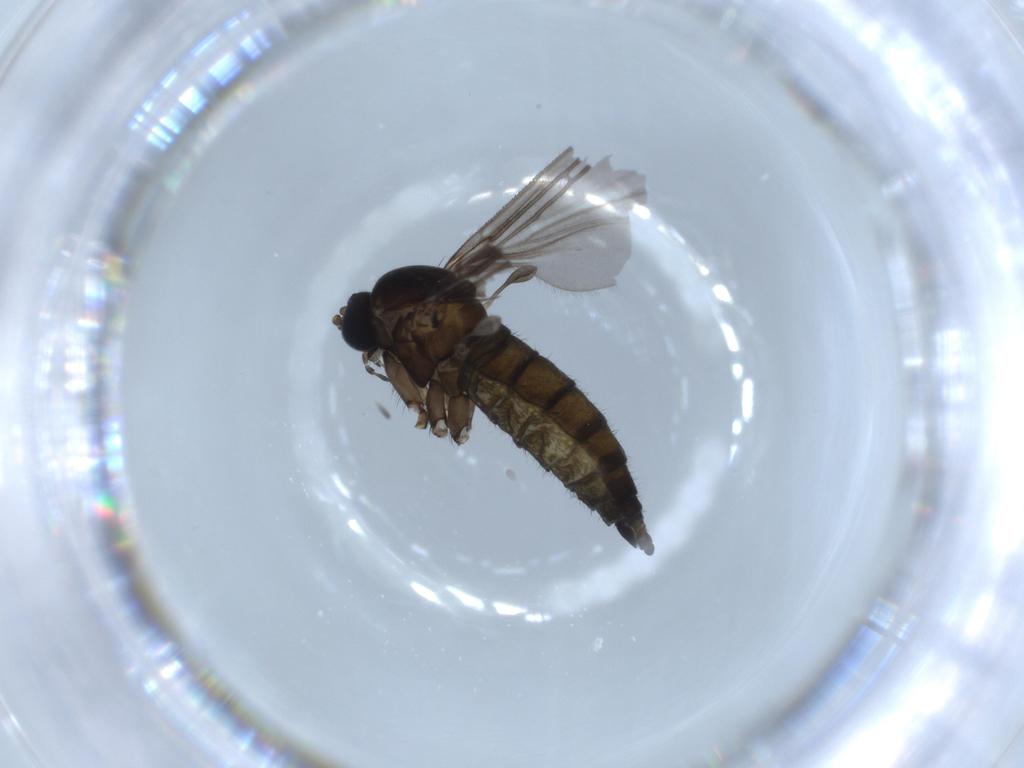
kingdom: Animalia
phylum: Arthropoda
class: Insecta
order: Diptera
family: Sciaridae
